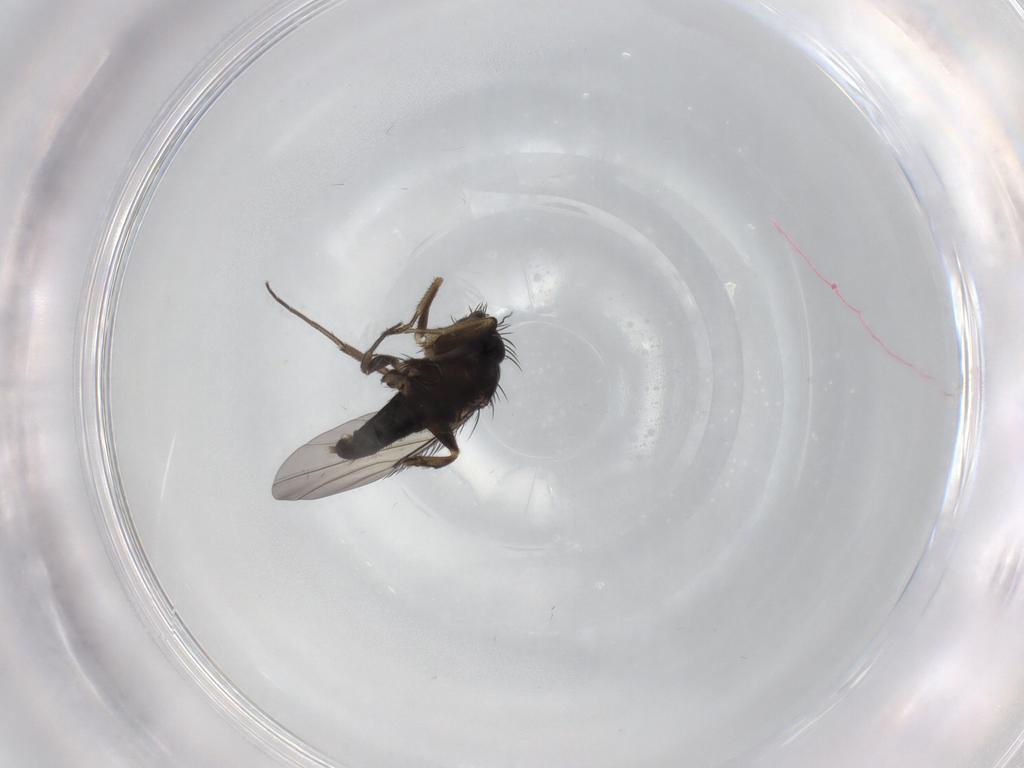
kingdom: Animalia
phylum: Arthropoda
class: Insecta
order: Diptera
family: Phoridae
